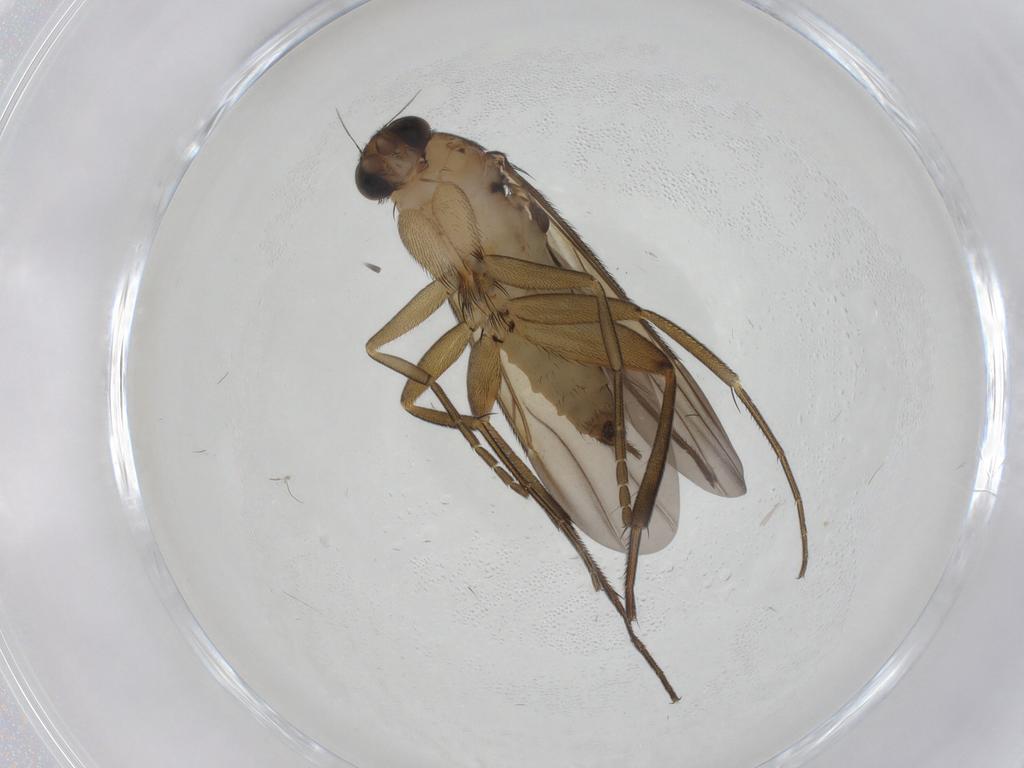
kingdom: Animalia
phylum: Arthropoda
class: Insecta
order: Diptera
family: Phoridae
